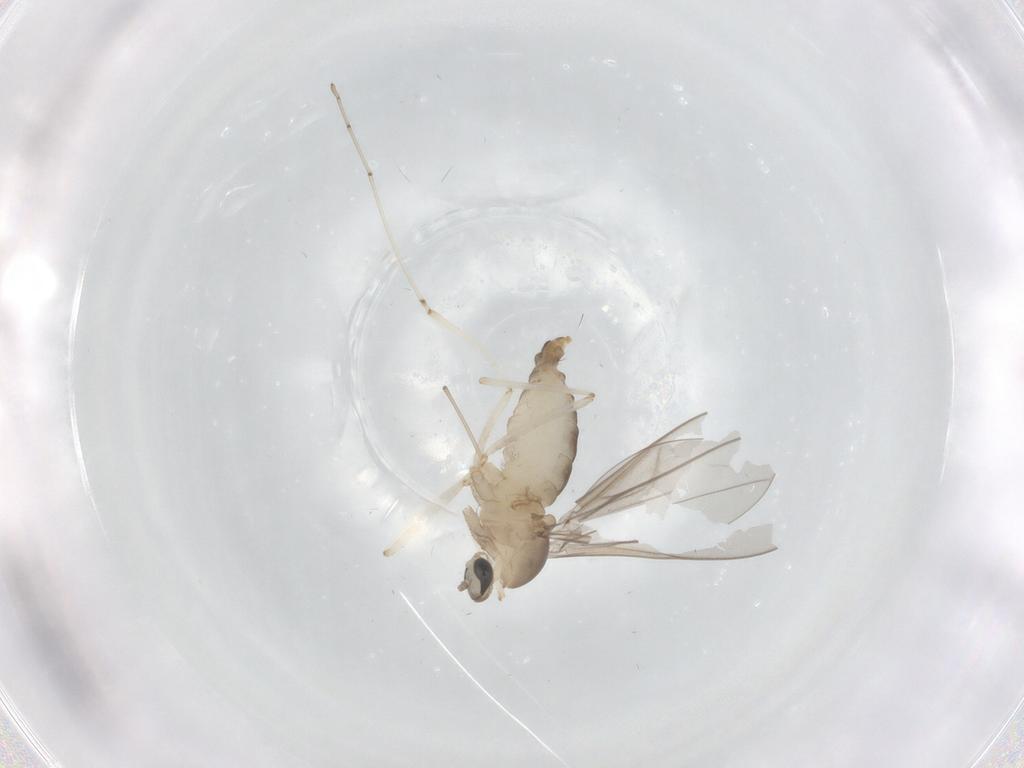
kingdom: Animalia
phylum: Arthropoda
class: Insecta
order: Diptera
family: Cecidomyiidae
